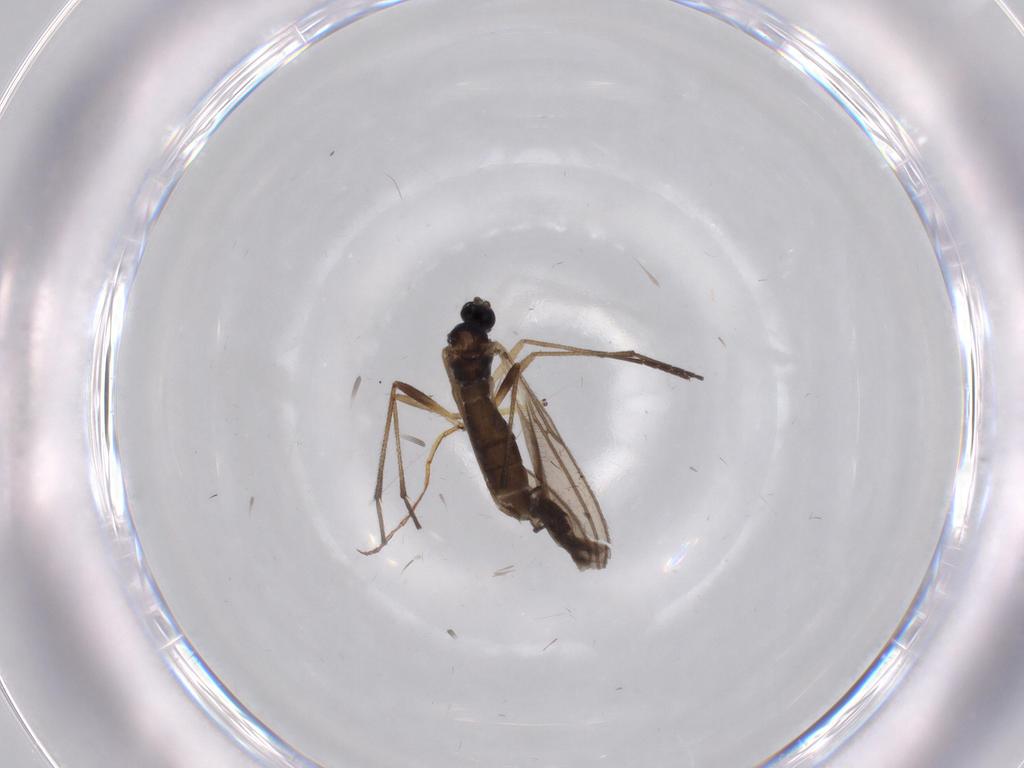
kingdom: Animalia
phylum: Arthropoda
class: Insecta
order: Diptera
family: Sciaridae
